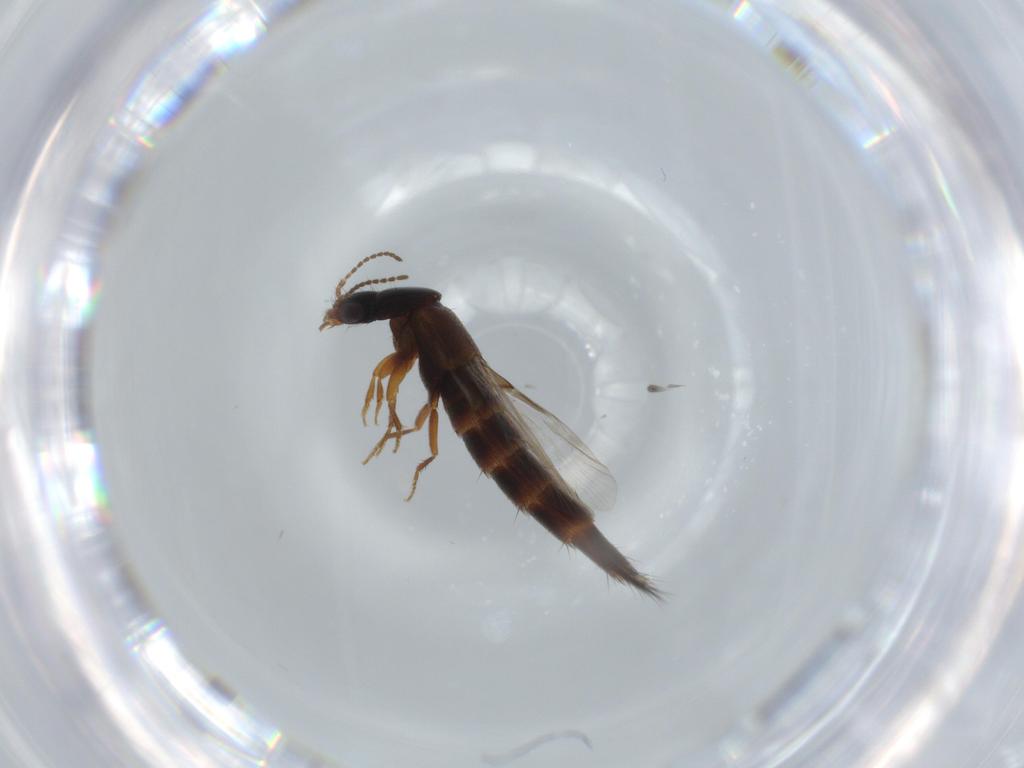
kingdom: Animalia
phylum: Arthropoda
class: Insecta
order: Coleoptera
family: Erotylidae
